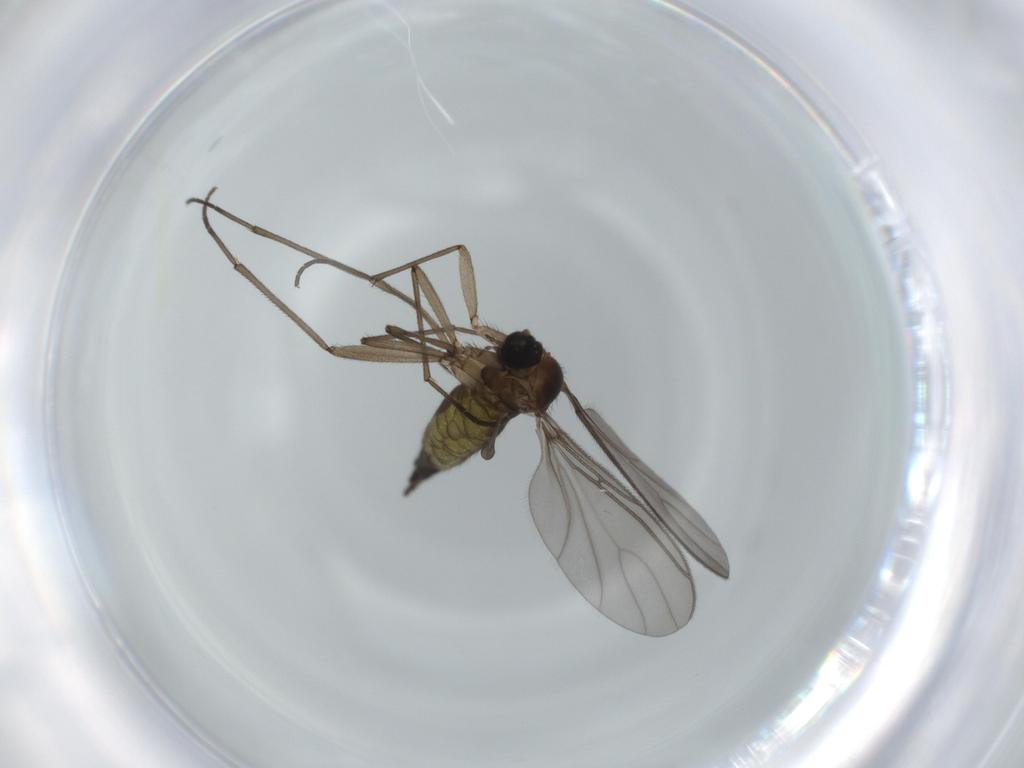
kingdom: Animalia
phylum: Arthropoda
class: Insecta
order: Diptera
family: Sciaridae
